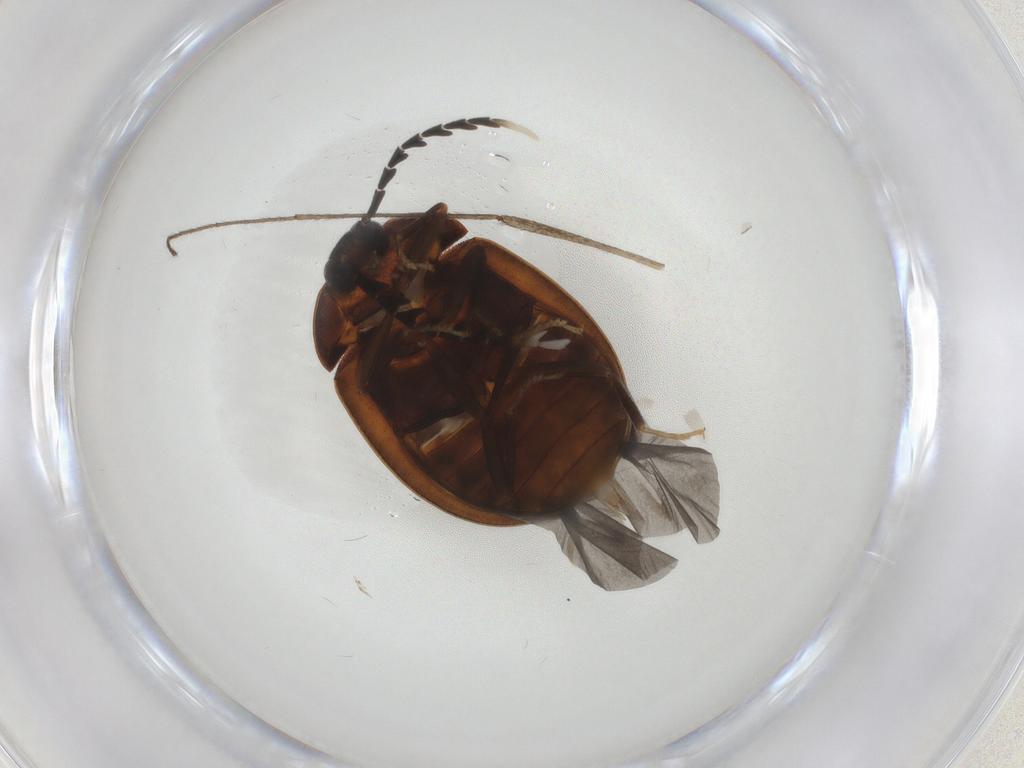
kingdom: Animalia
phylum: Arthropoda
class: Insecta
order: Coleoptera
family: Psephenidae
